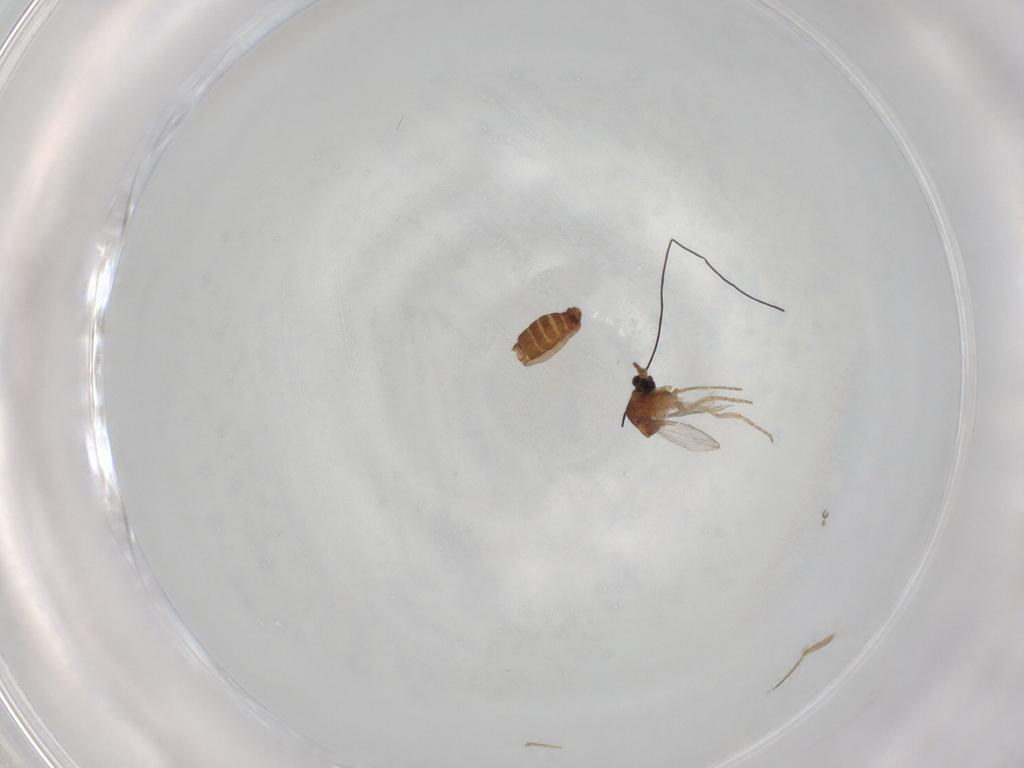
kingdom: Animalia
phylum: Arthropoda
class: Insecta
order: Diptera
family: Ceratopogonidae
